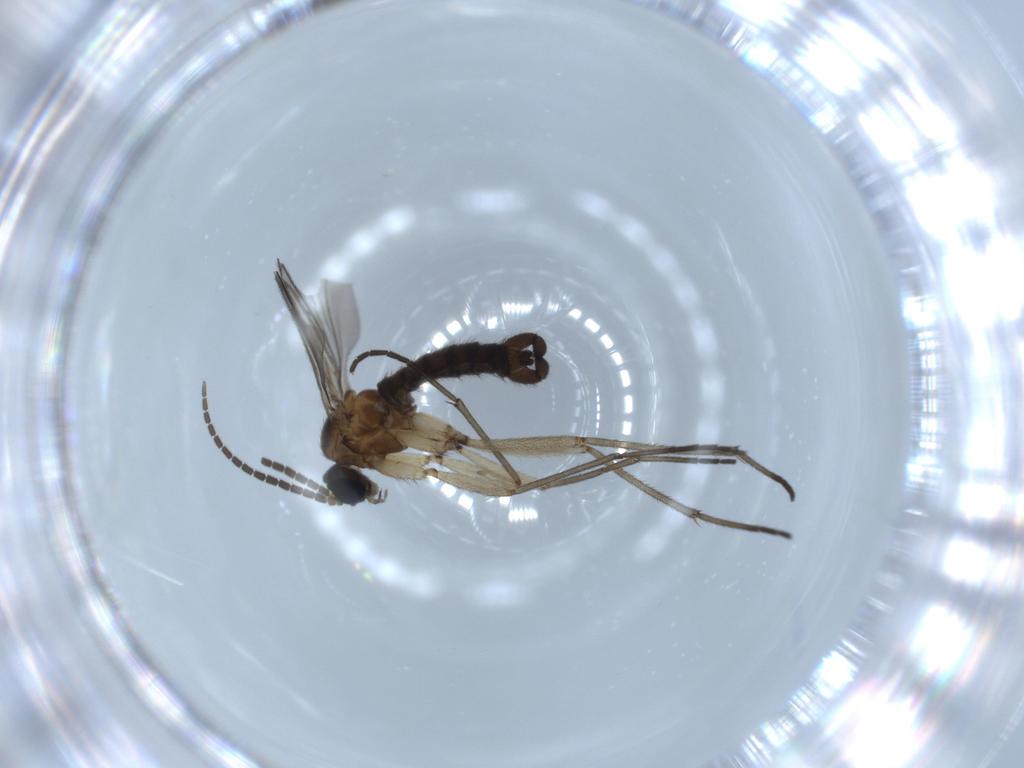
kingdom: Animalia
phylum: Arthropoda
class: Insecta
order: Diptera
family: Sciaridae
